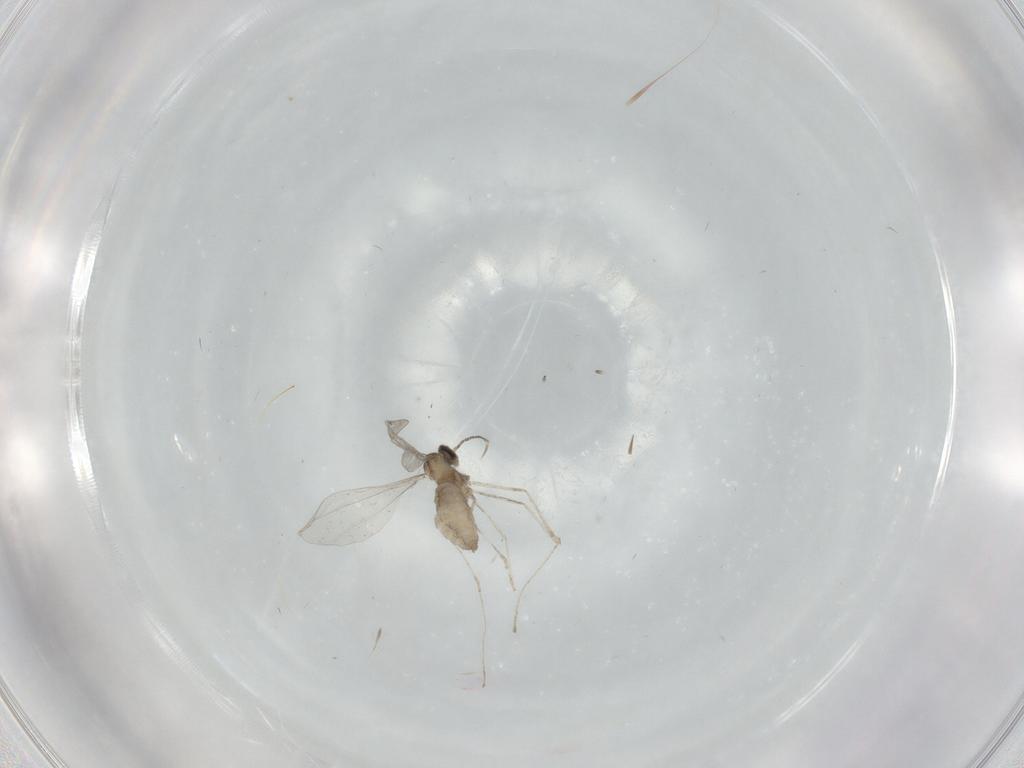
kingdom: Animalia
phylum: Arthropoda
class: Insecta
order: Diptera
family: Cecidomyiidae
